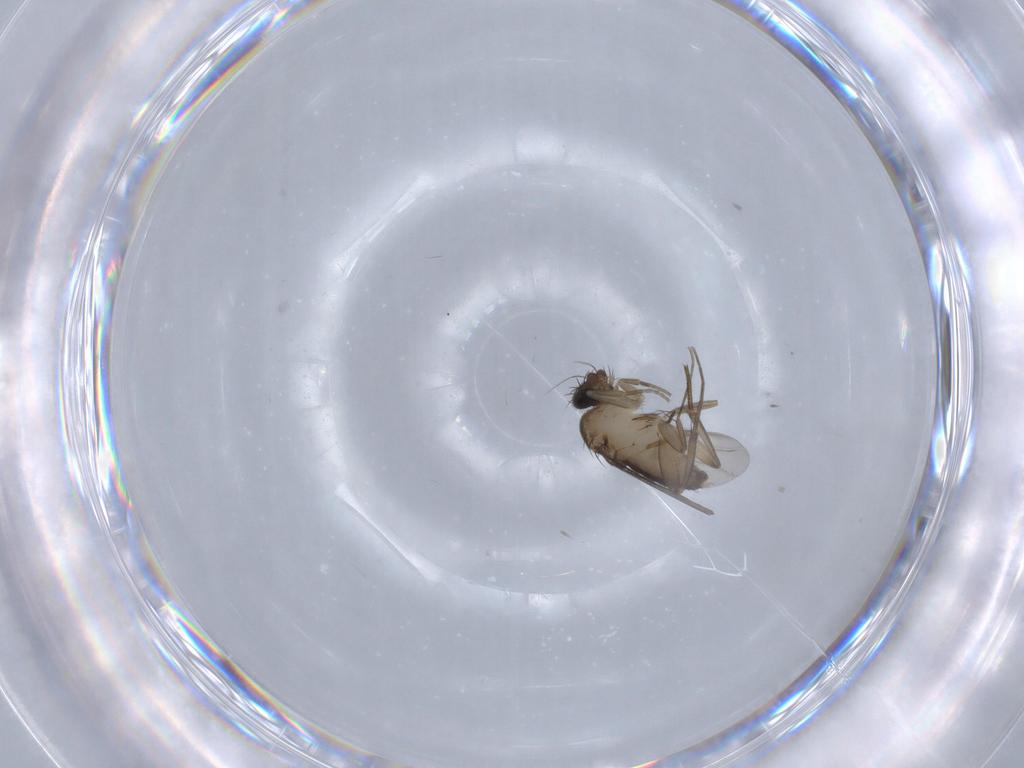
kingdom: Animalia
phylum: Arthropoda
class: Insecta
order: Diptera
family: Phoridae
